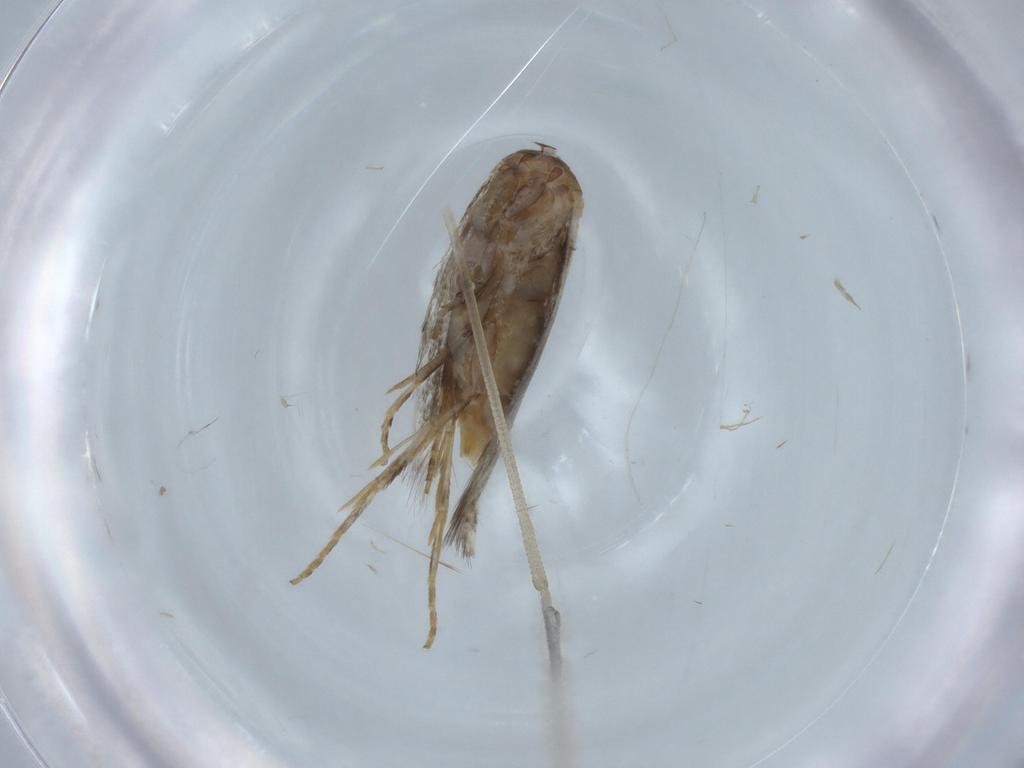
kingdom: Animalia
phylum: Arthropoda
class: Insecta
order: Lepidoptera
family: Elachistidae
